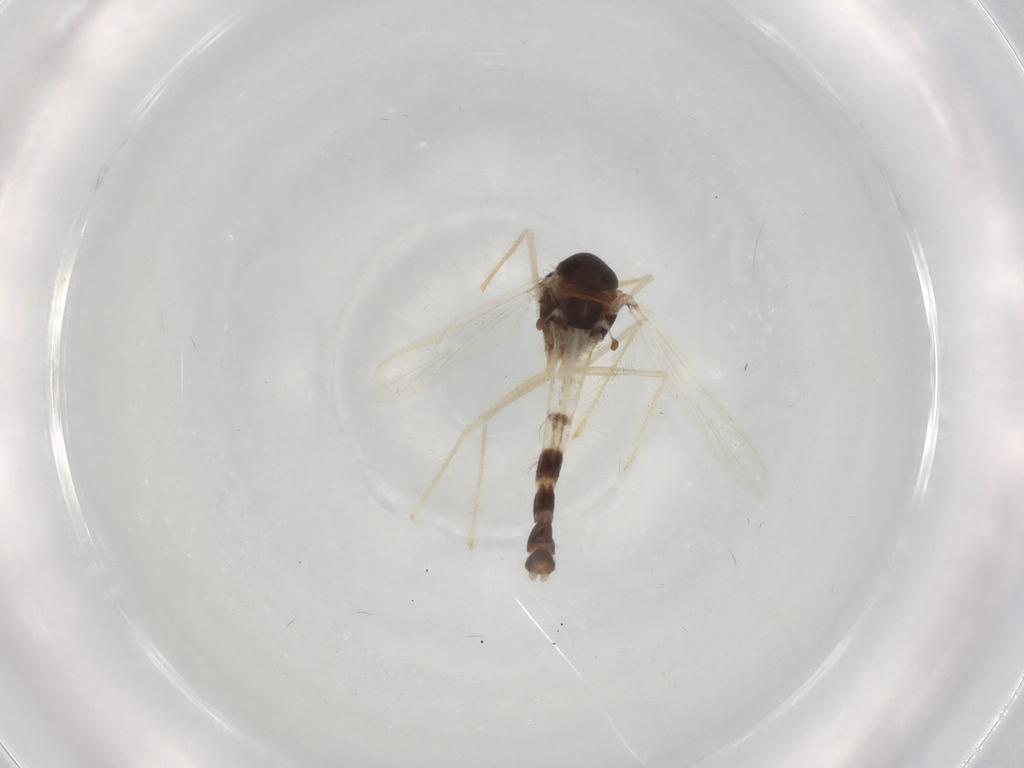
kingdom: Animalia
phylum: Arthropoda
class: Insecta
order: Diptera
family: Chironomidae
